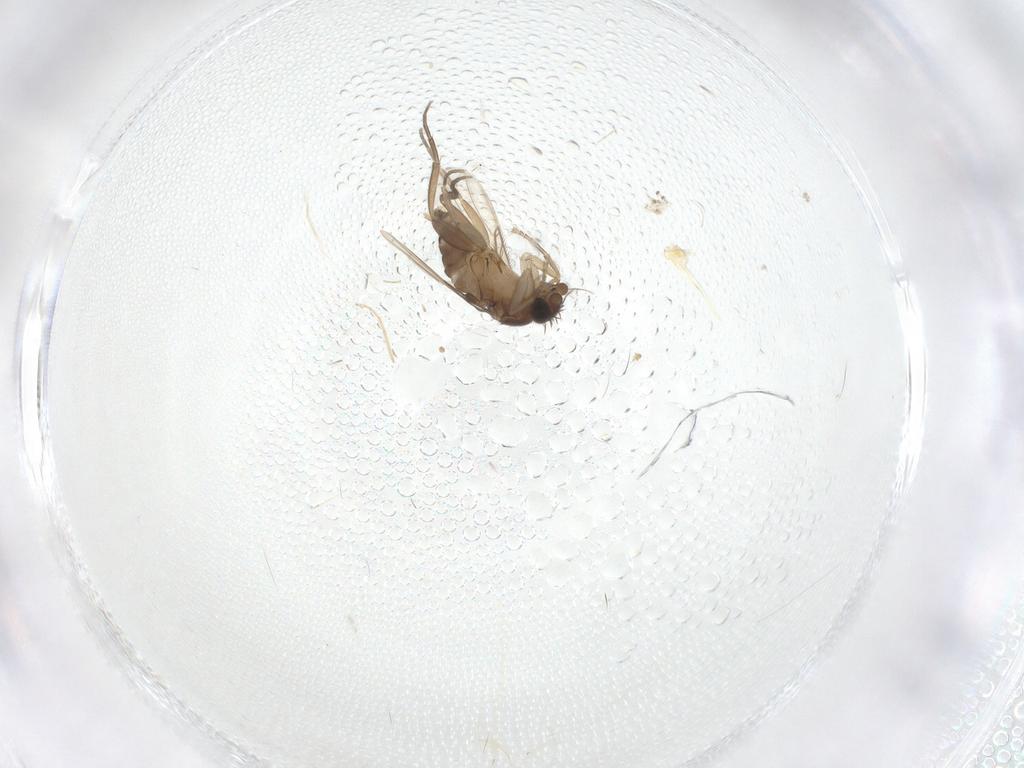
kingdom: Animalia
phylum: Arthropoda
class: Insecta
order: Diptera
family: Phoridae
